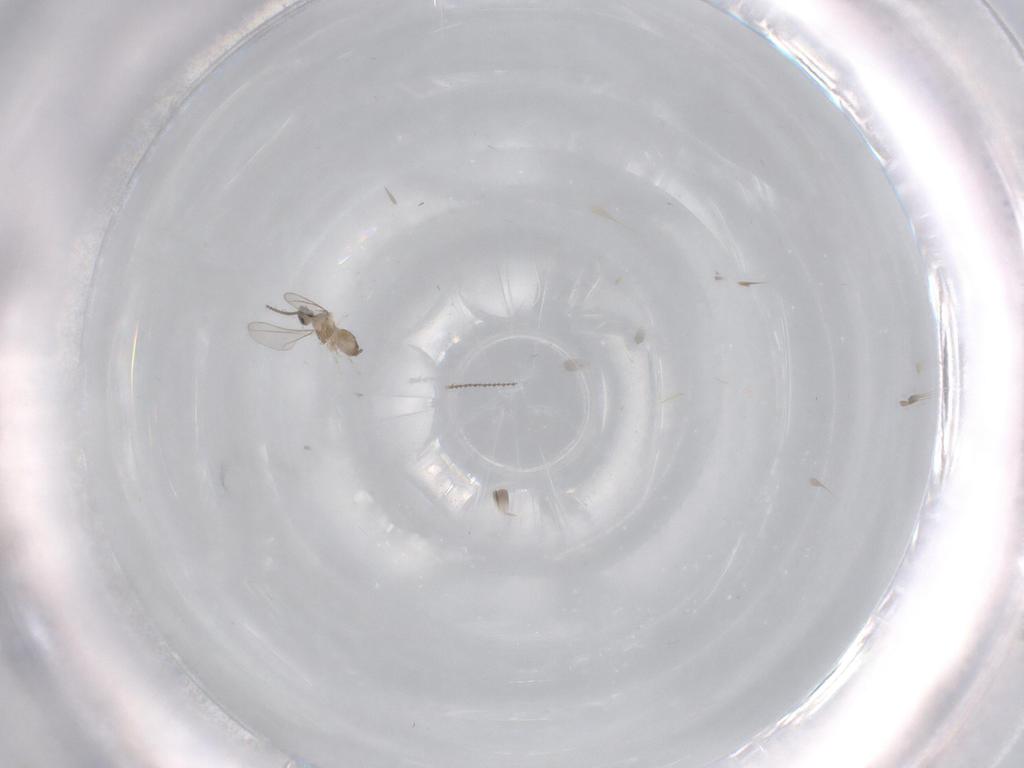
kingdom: Animalia
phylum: Arthropoda
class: Insecta
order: Diptera
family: Cecidomyiidae
